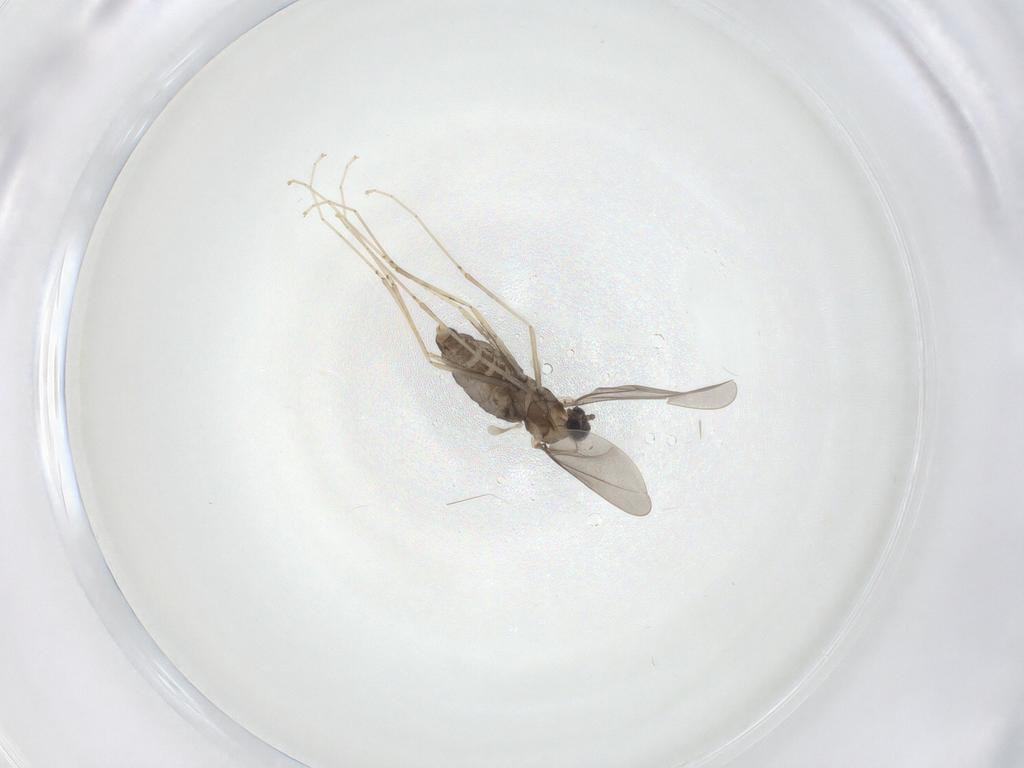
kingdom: Animalia
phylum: Arthropoda
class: Insecta
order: Diptera
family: Cecidomyiidae
